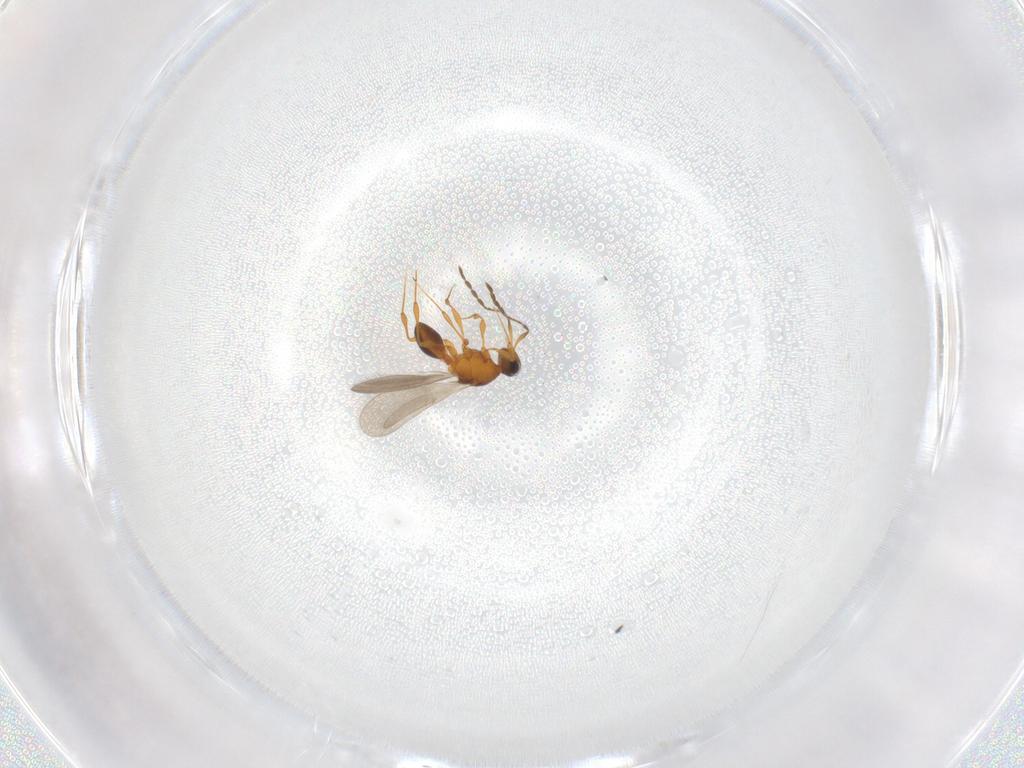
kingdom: Animalia
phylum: Arthropoda
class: Insecta
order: Hymenoptera
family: Platygastridae
